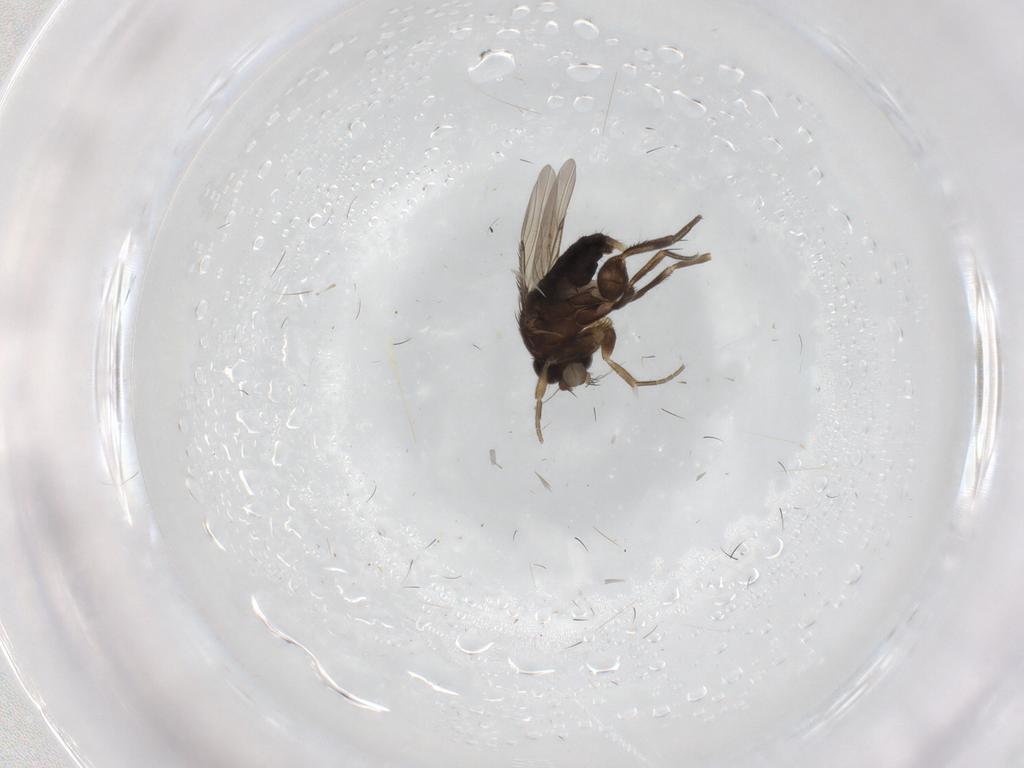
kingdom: Animalia
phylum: Arthropoda
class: Insecta
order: Diptera
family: Phoridae
